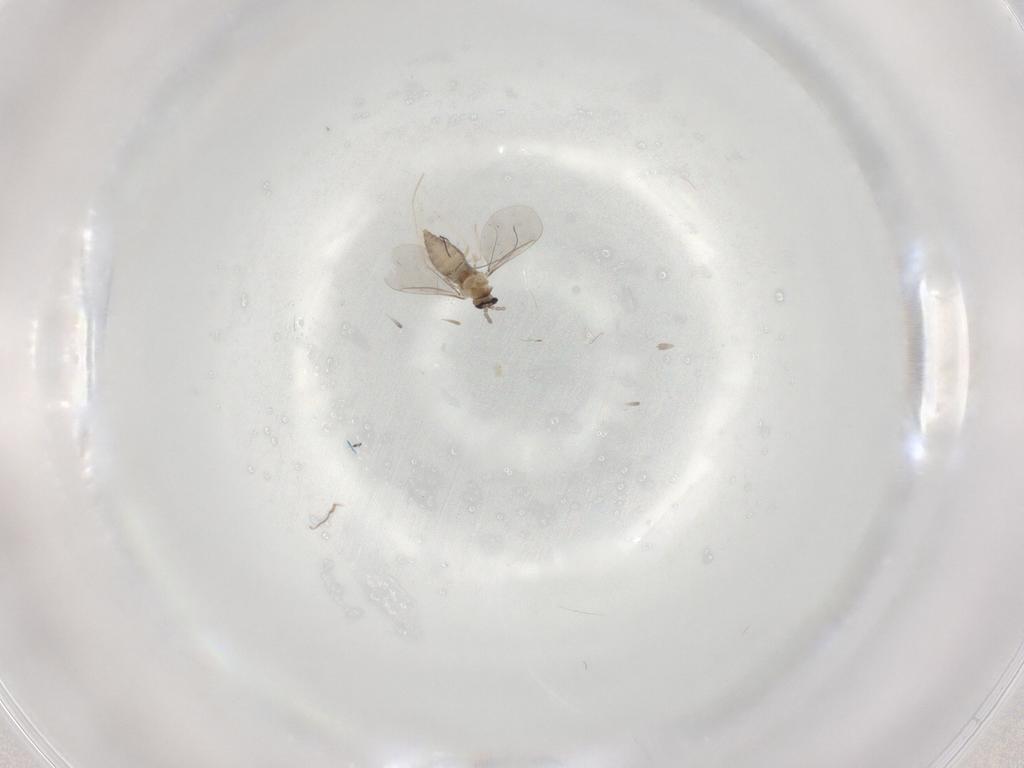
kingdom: Animalia
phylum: Arthropoda
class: Insecta
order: Diptera
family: Cecidomyiidae
